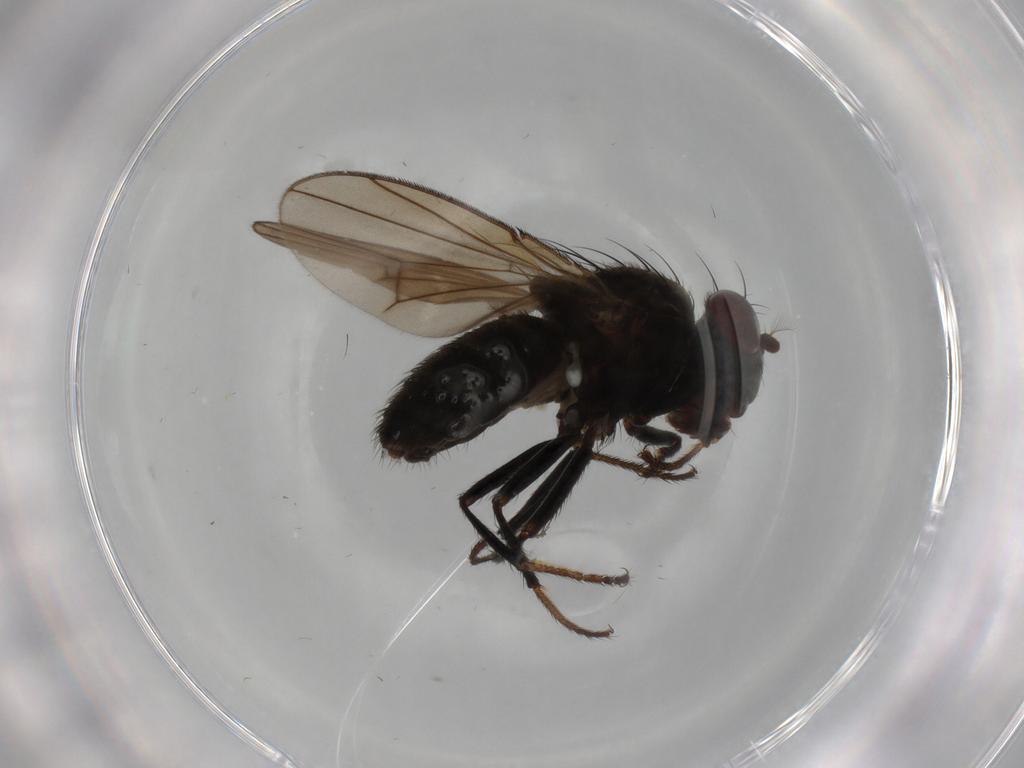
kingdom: Animalia
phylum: Arthropoda
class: Insecta
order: Diptera
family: Ephydridae
